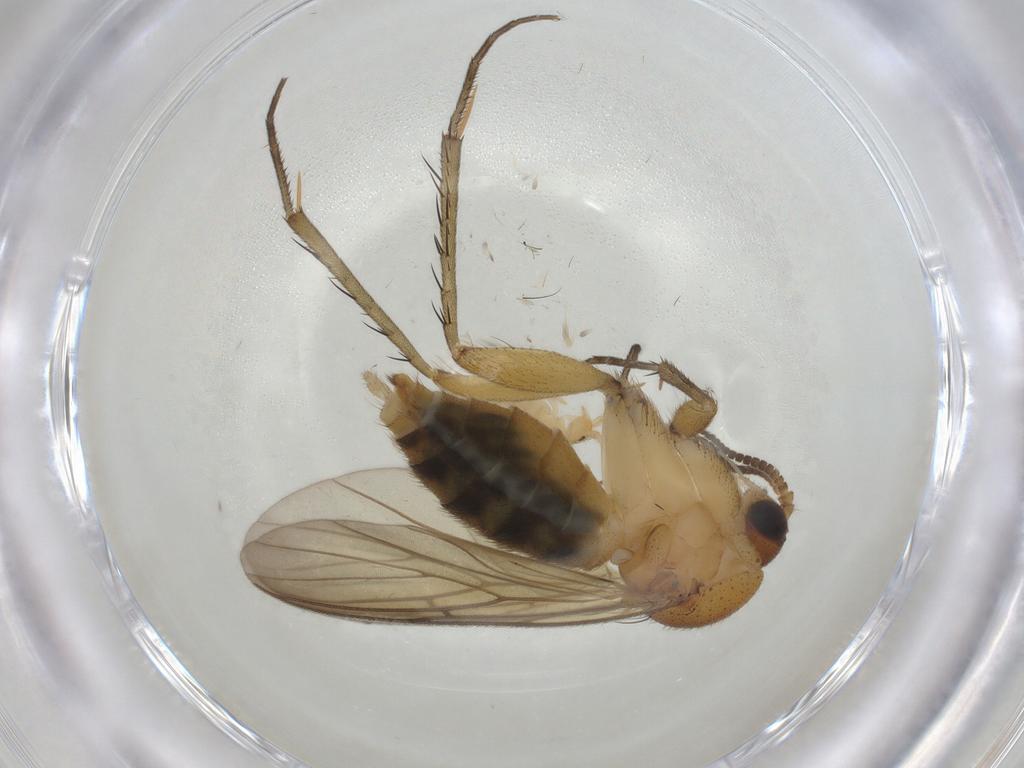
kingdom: Animalia
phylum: Arthropoda
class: Insecta
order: Diptera
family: Mycetophilidae
